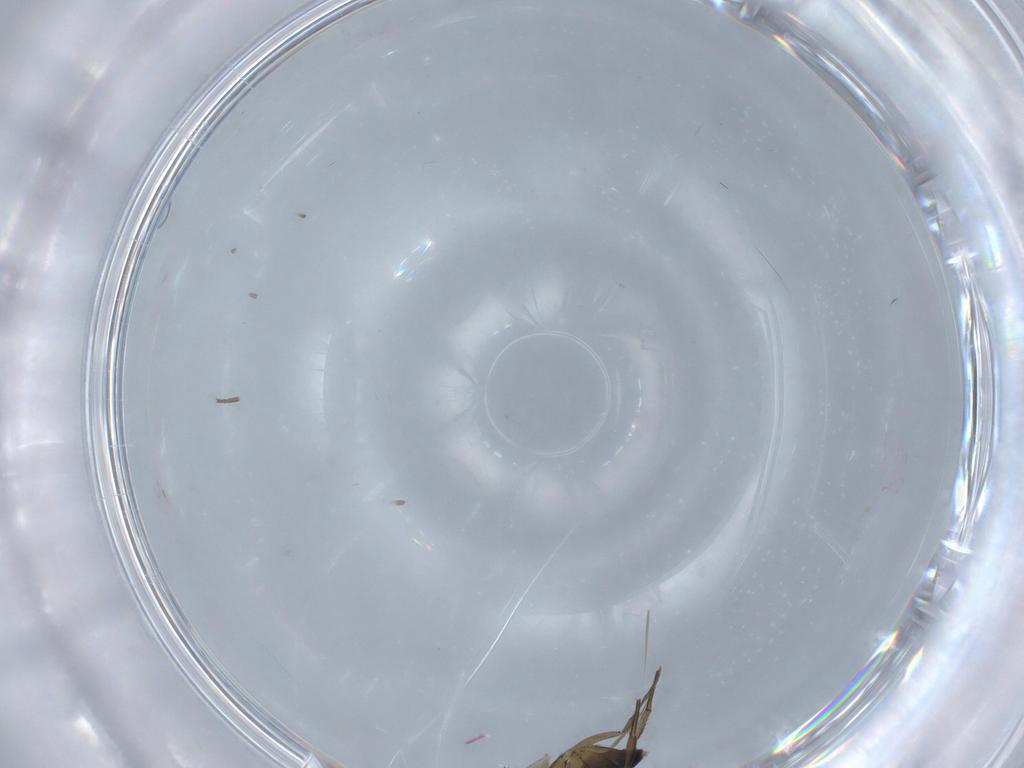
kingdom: Animalia
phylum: Arthropoda
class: Insecta
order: Diptera
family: Phoridae
